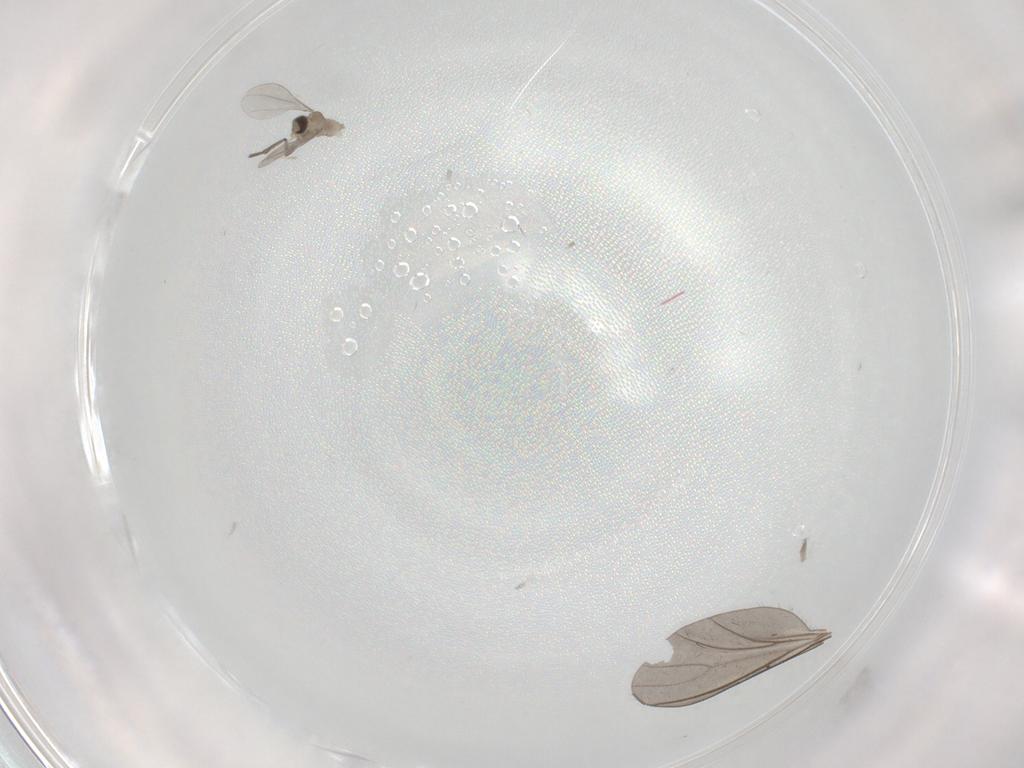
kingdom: Animalia
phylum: Arthropoda
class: Insecta
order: Diptera
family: Sciaridae
